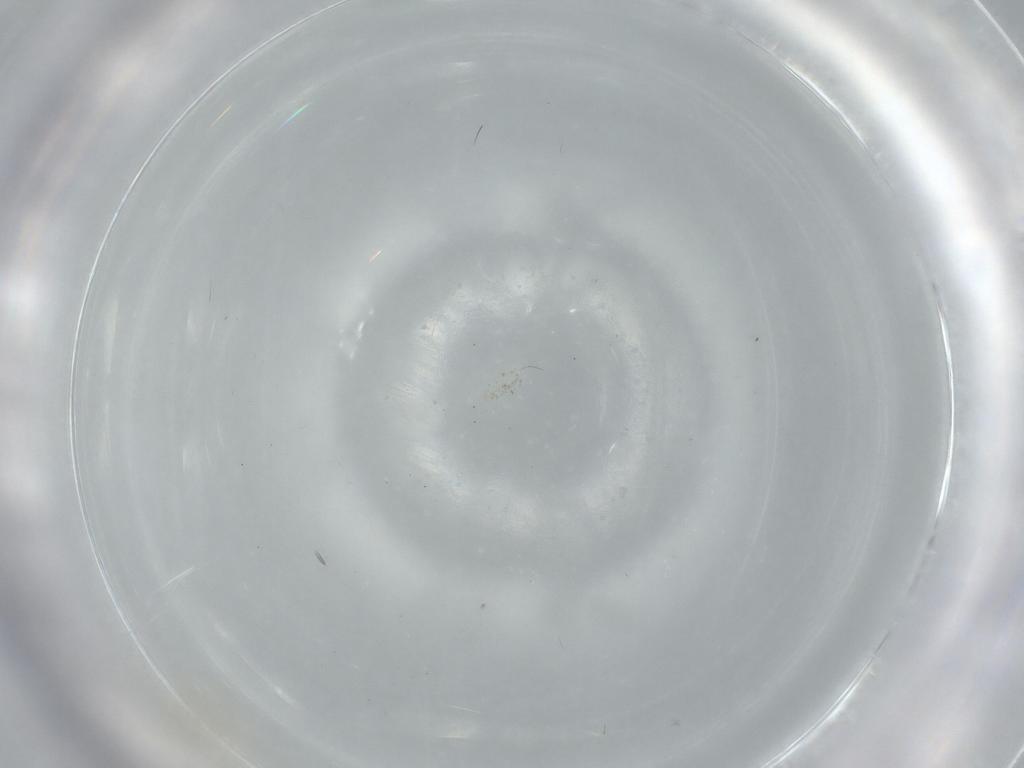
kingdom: Animalia
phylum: Arthropoda
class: Insecta
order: Diptera
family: Cecidomyiidae
